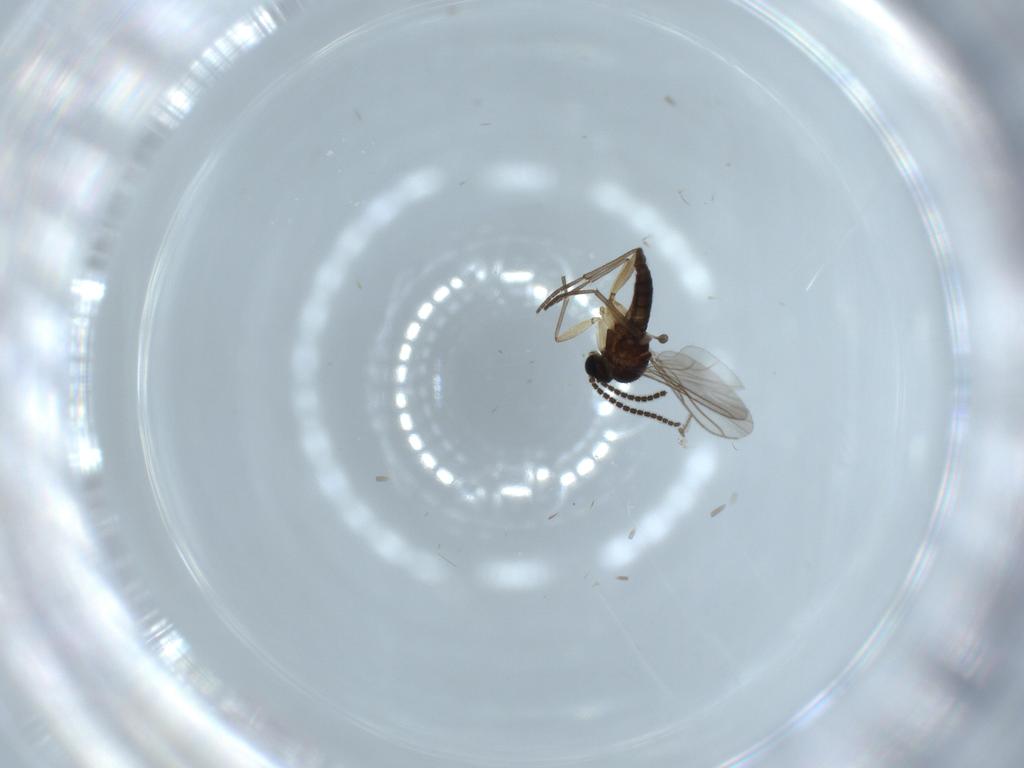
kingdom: Animalia
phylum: Arthropoda
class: Insecta
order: Diptera
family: Sciaridae
